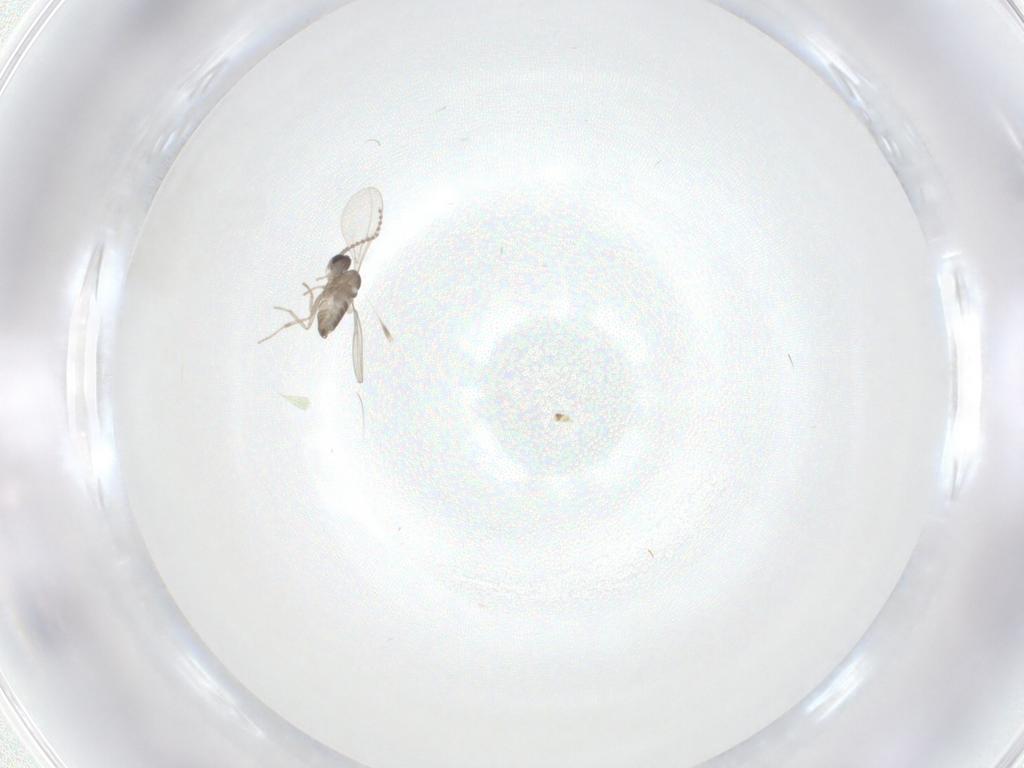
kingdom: Animalia
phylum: Arthropoda
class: Insecta
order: Diptera
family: Cecidomyiidae
